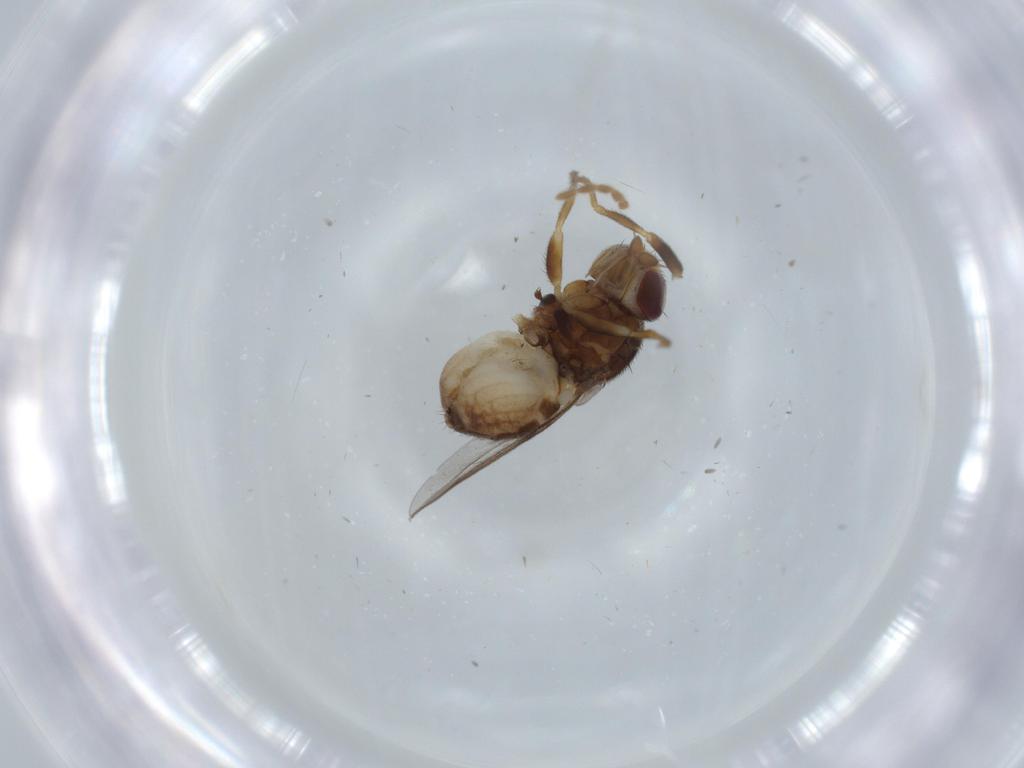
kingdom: Animalia
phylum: Arthropoda
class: Insecta
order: Diptera
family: Chloropidae
